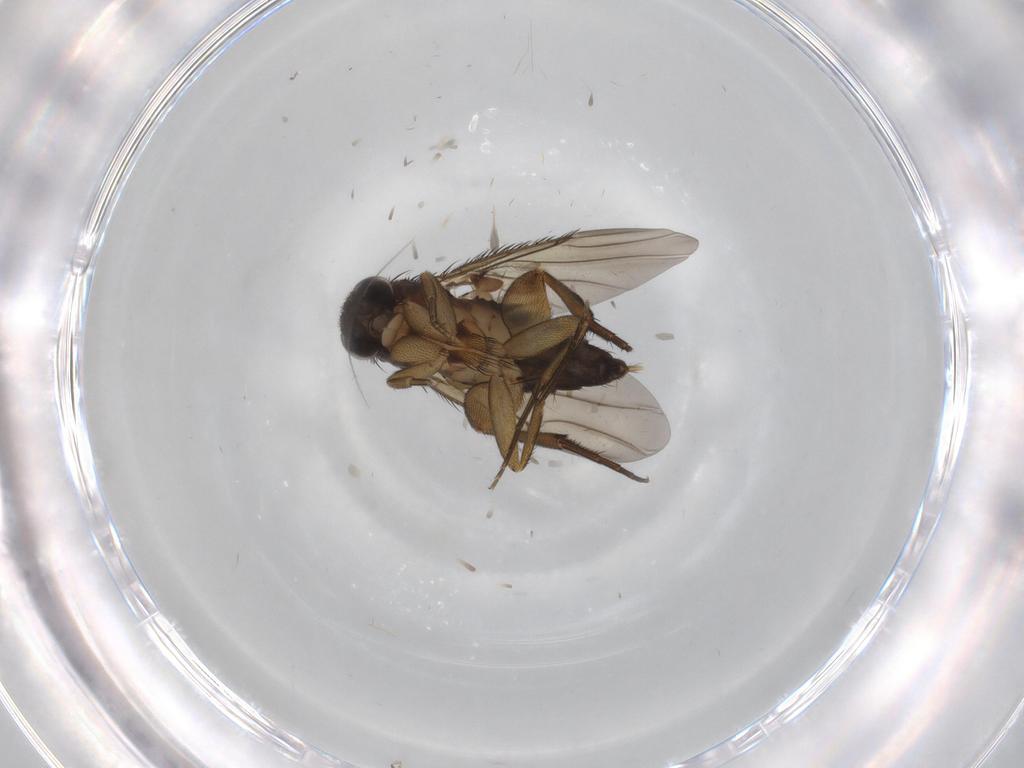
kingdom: Animalia
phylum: Arthropoda
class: Insecta
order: Diptera
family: Phoridae
